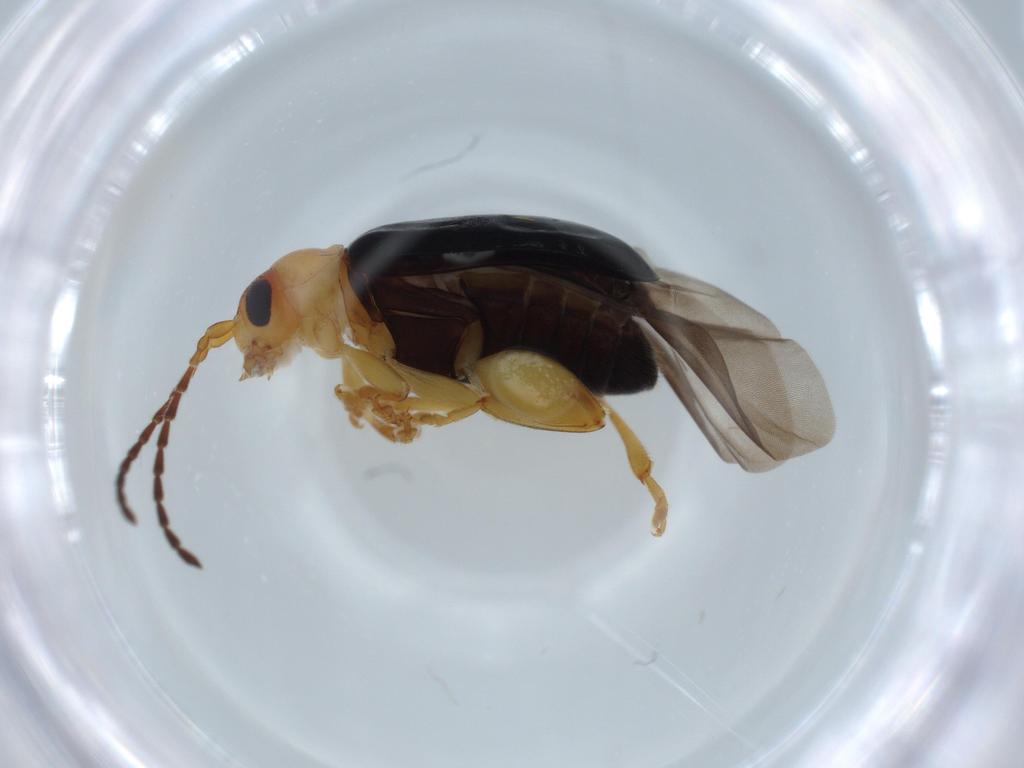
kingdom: Animalia
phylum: Arthropoda
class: Insecta
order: Coleoptera
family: Chrysomelidae
